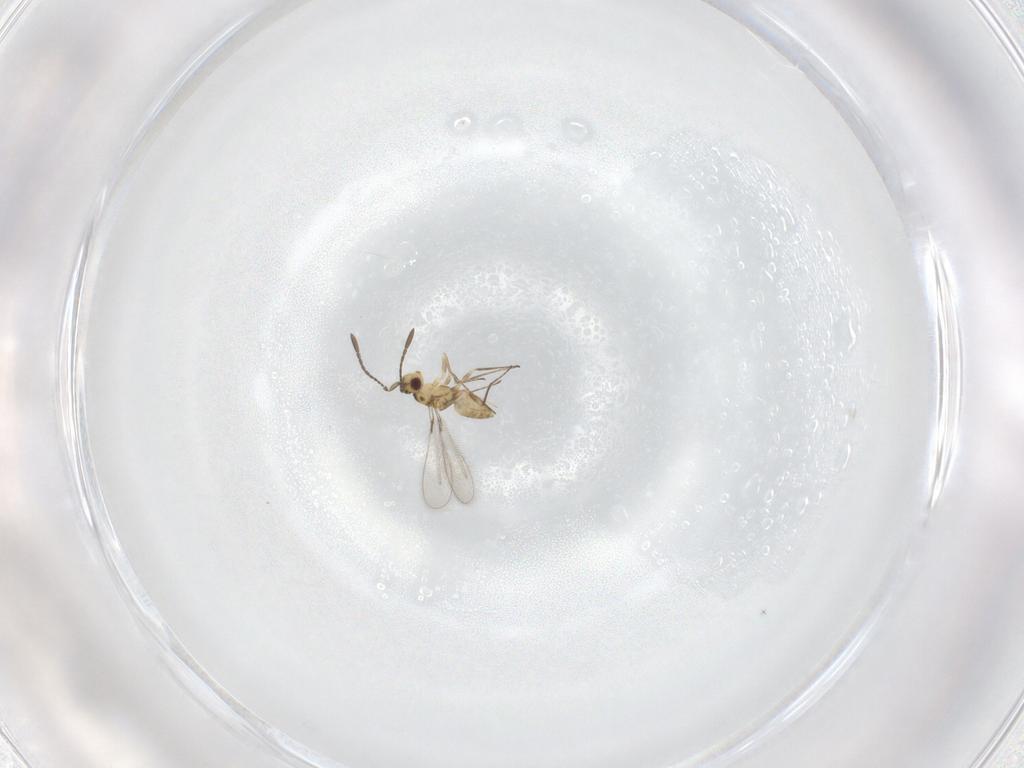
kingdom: Animalia
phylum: Arthropoda
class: Insecta
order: Hymenoptera
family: Mymaridae
